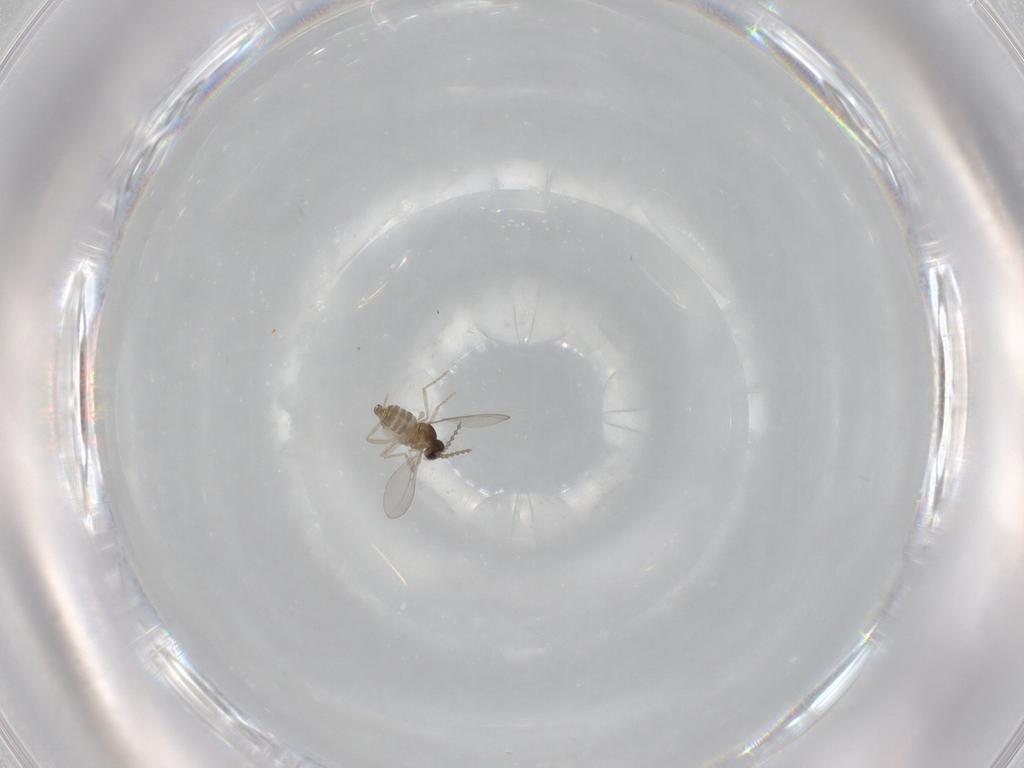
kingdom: Animalia
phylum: Arthropoda
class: Insecta
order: Diptera
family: Cecidomyiidae
